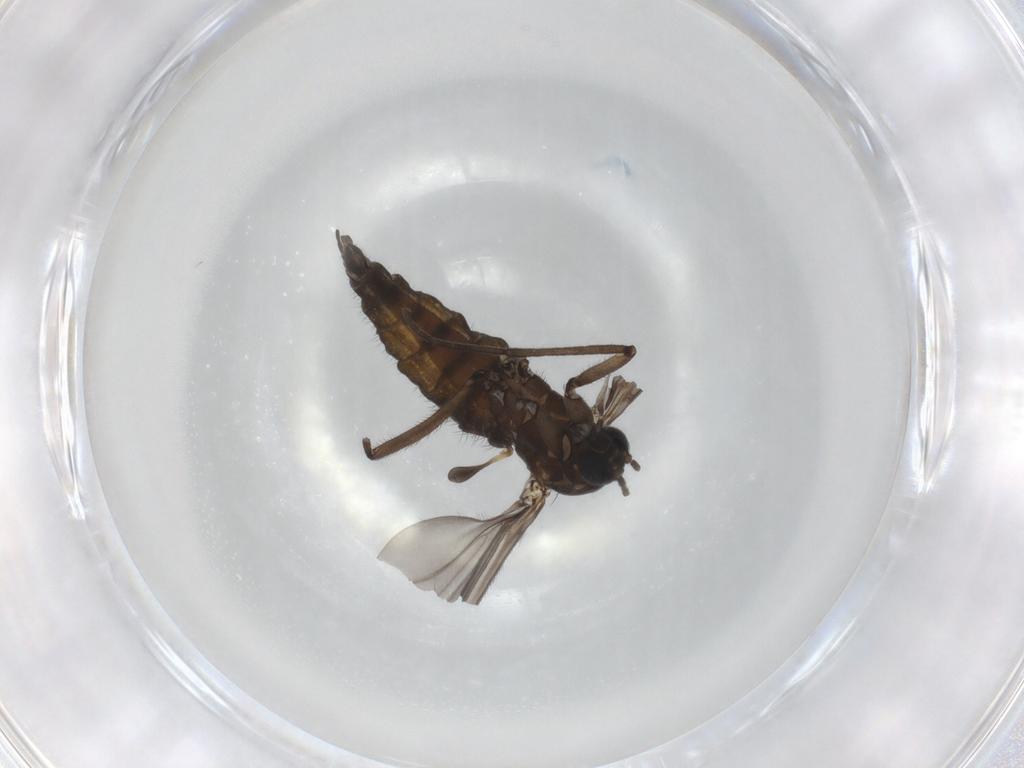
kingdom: Animalia
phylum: Arthropoda
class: Insecta
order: Diptera
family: Sciaridae
